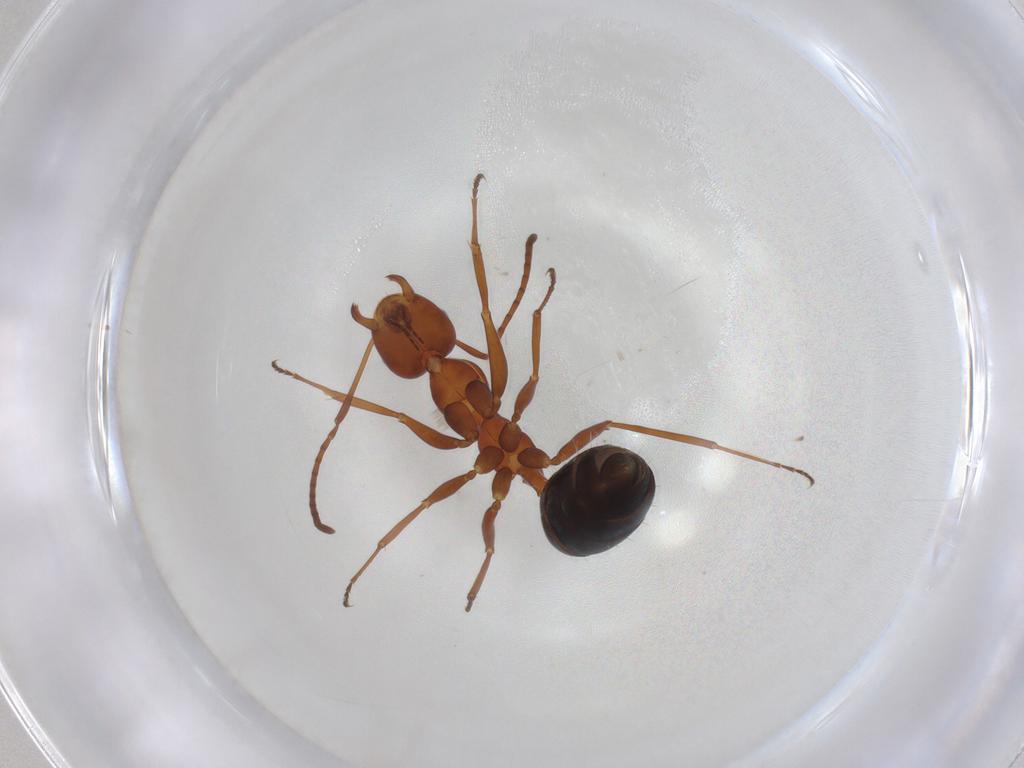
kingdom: Animalia
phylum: Arthropoda
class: Insecta
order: Hymenoptera
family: Formicidae
